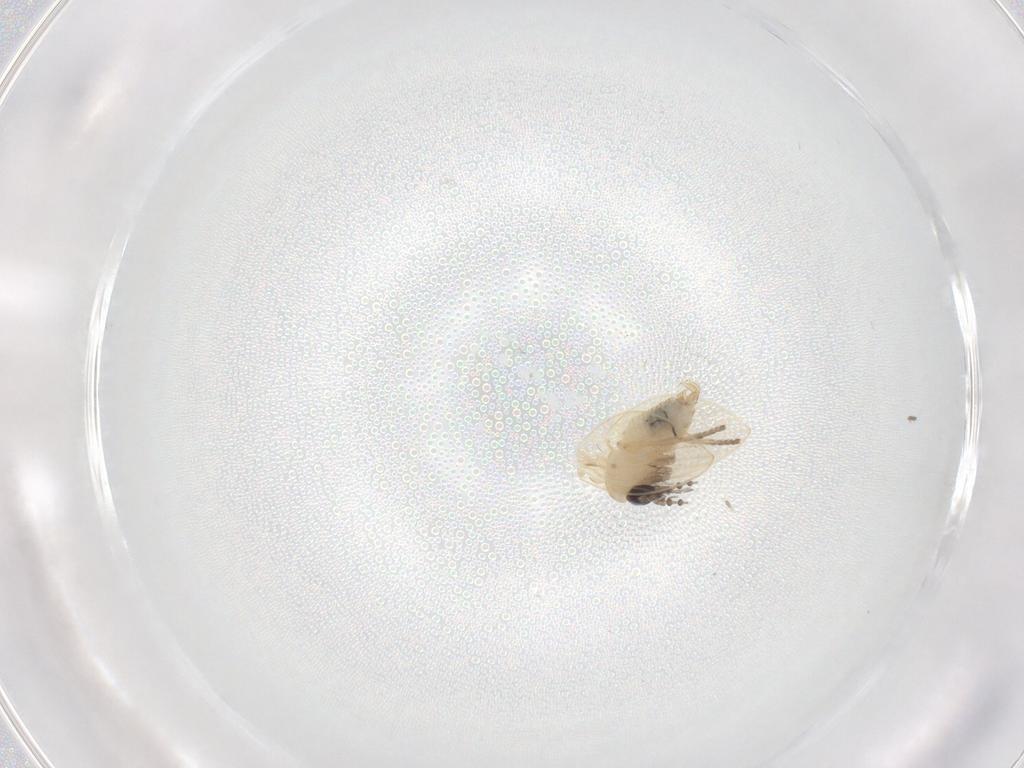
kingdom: Animalia
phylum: Arthropoda
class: Insecta
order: Diptera
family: Psychodidae
